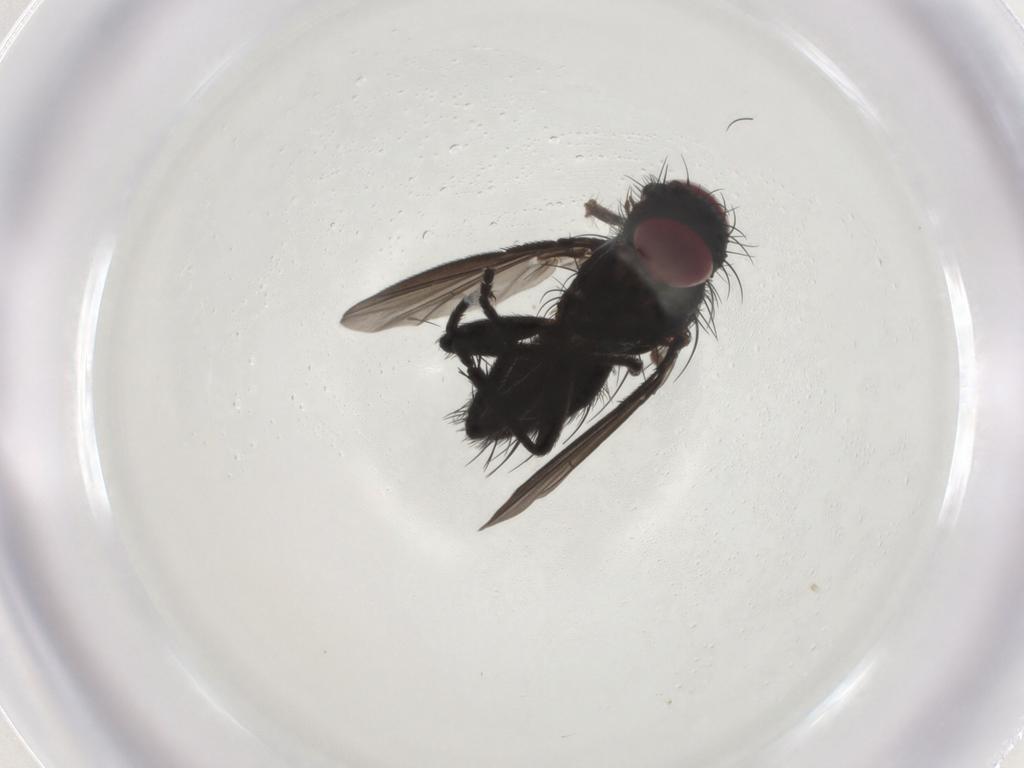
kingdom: Animalia
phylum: Arthropoda
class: Insecta
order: Diptera
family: Tachinidae
